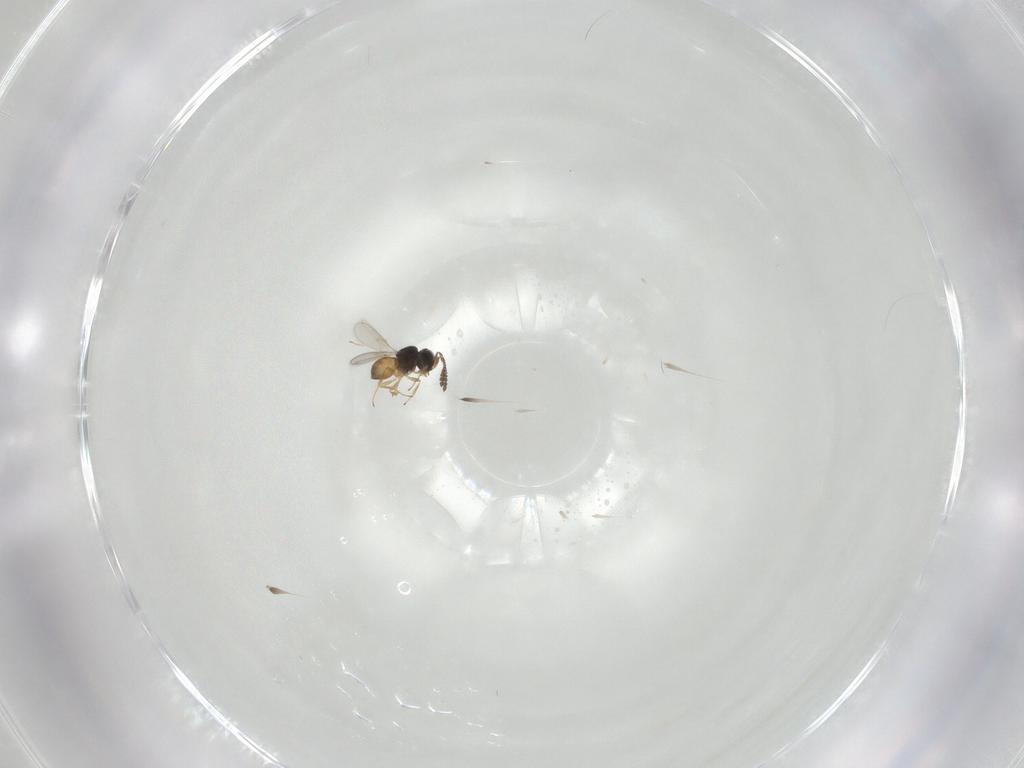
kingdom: Animalia
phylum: Arthropoda
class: Insecta
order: Hymenoptera
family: Scelionidae
